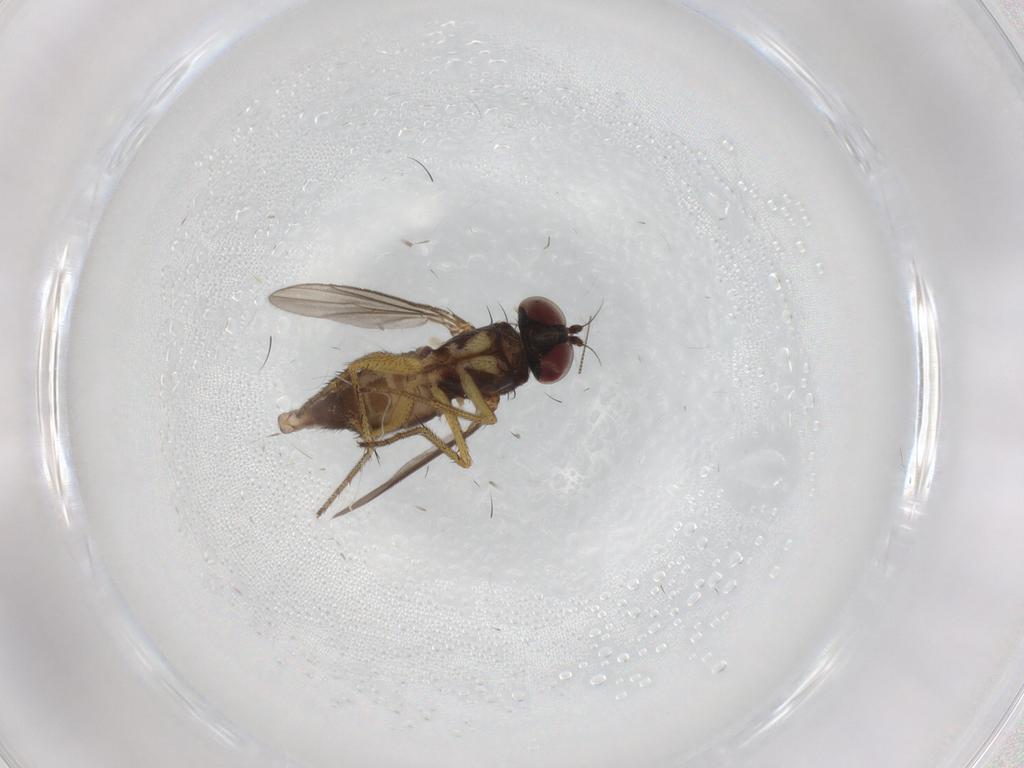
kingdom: Animalia
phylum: Arthropoda
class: Insecta
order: Diptera
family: Chironomidae
